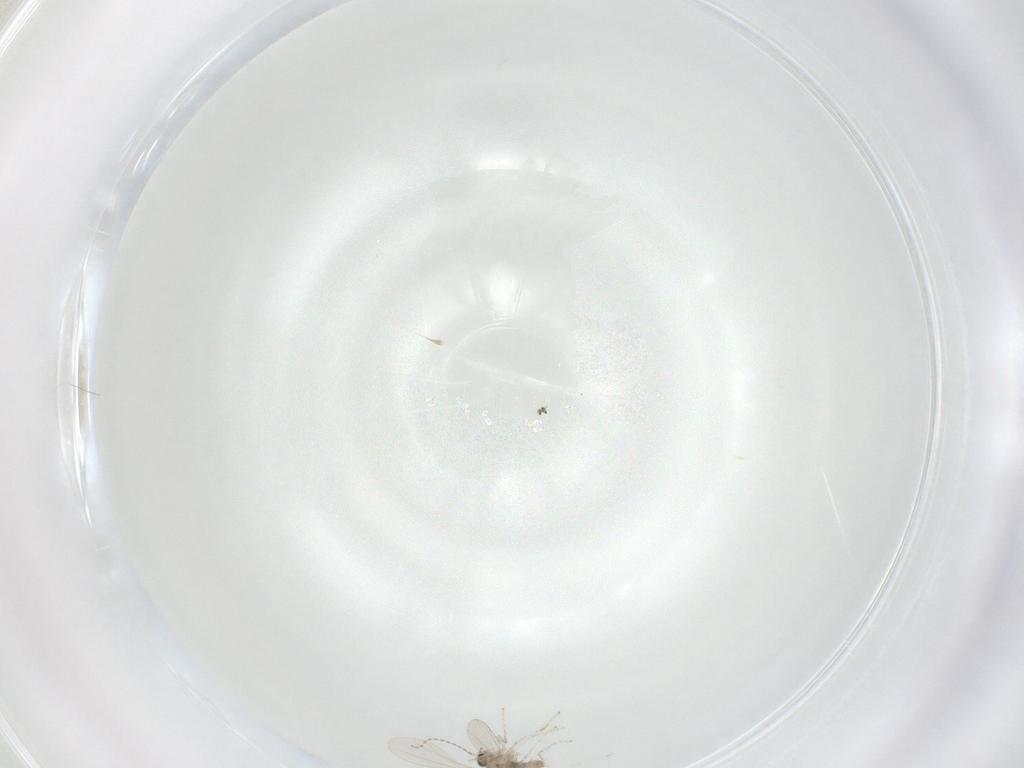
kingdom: Animalia
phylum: Arthropoda
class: Insecta
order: Diptera
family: Cecidomyiidae
